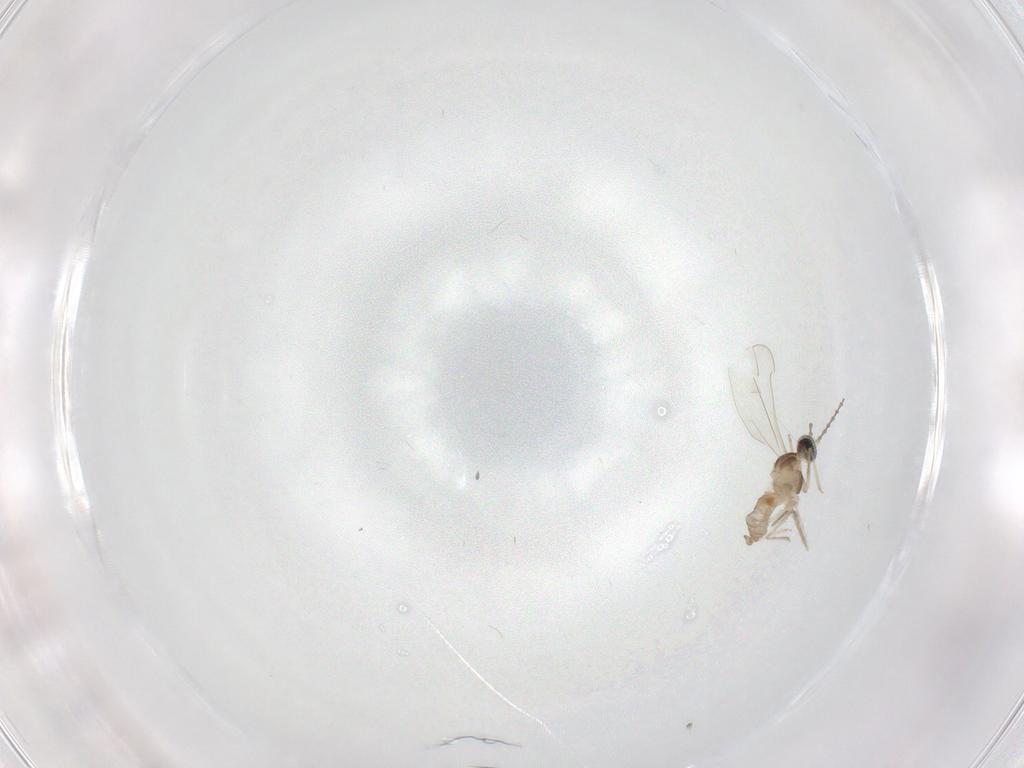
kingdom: Animalia
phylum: Arthropoda
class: Insecta
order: Diptera
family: Cecidomyiidae
